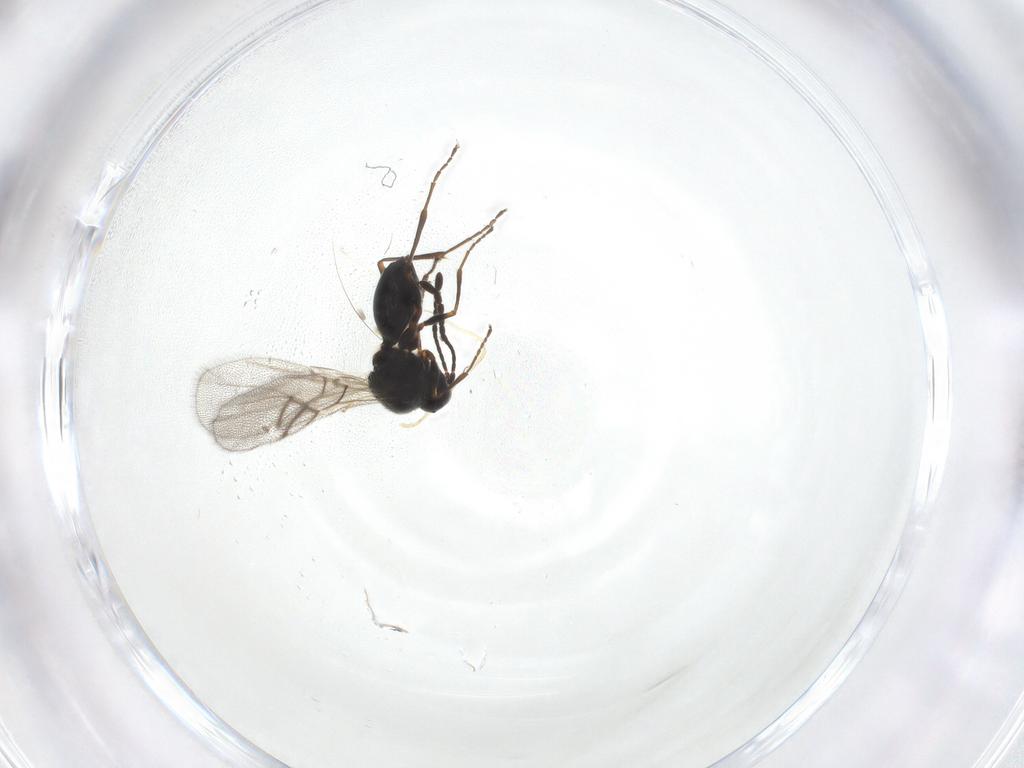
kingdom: Animalia
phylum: Arthropoda
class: Insecta
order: Hymenoptera
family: Figitidae
